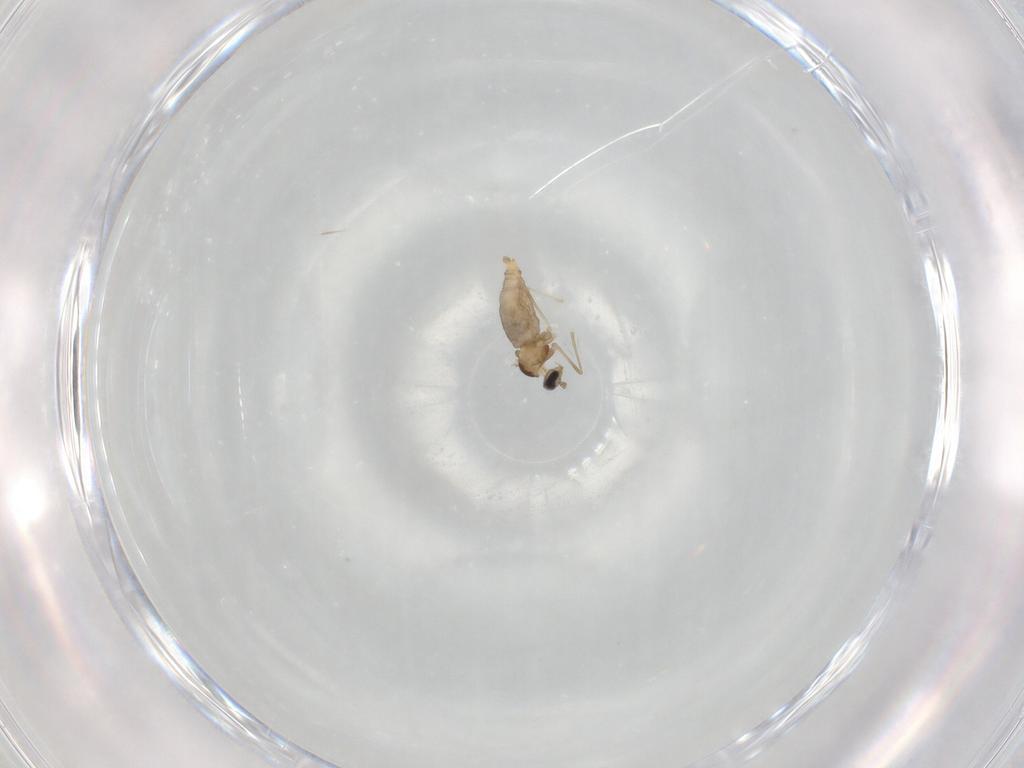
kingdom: Animalia
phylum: Arthropoda
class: Insecta
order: Diptera
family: Cecidomyiidae
